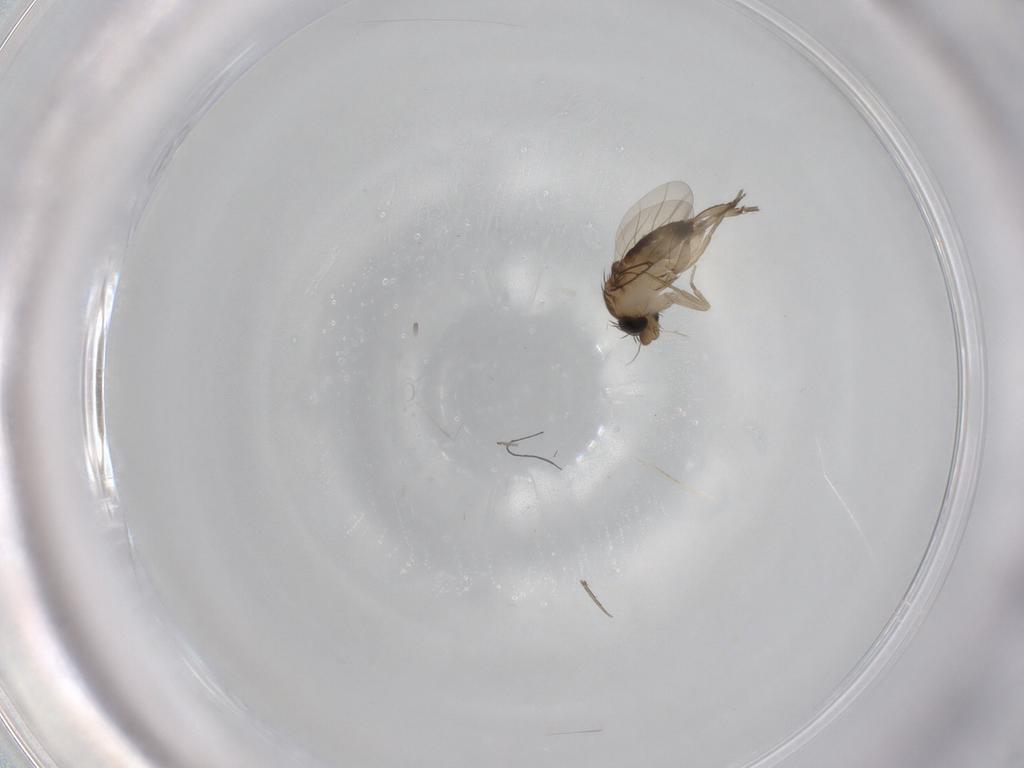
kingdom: Animalia
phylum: Arthropoda
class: Insecta
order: Diptera
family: Phoridae
